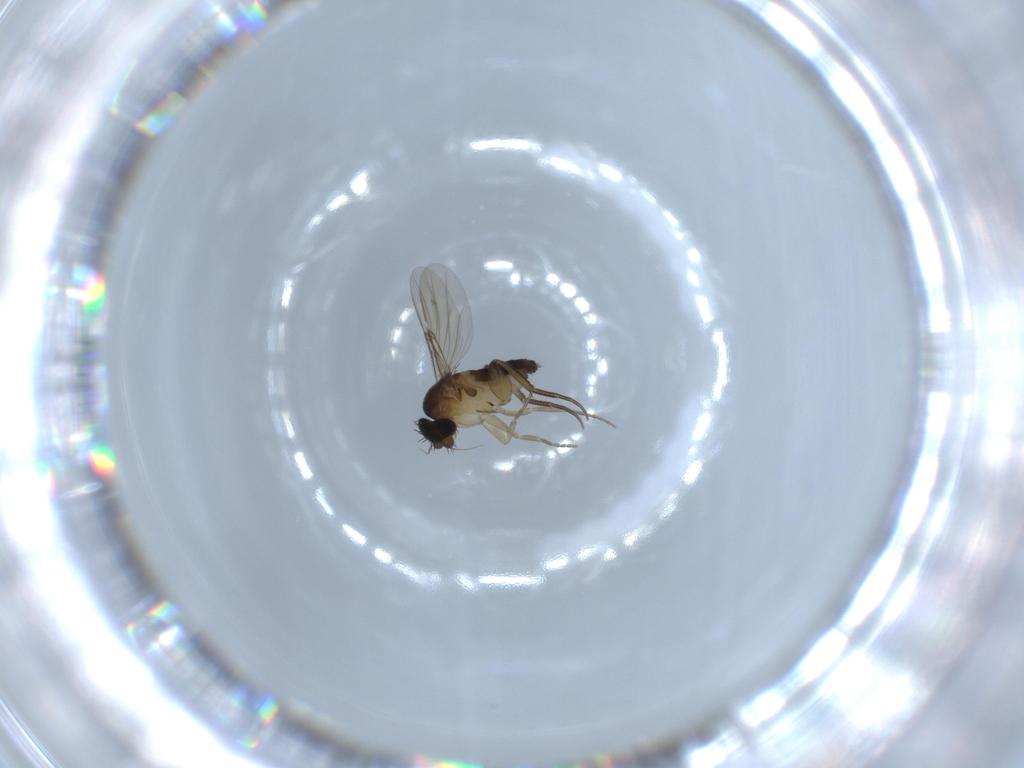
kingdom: Animalia
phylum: Arthropoda
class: Insecta
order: Diptera
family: Phoridae
